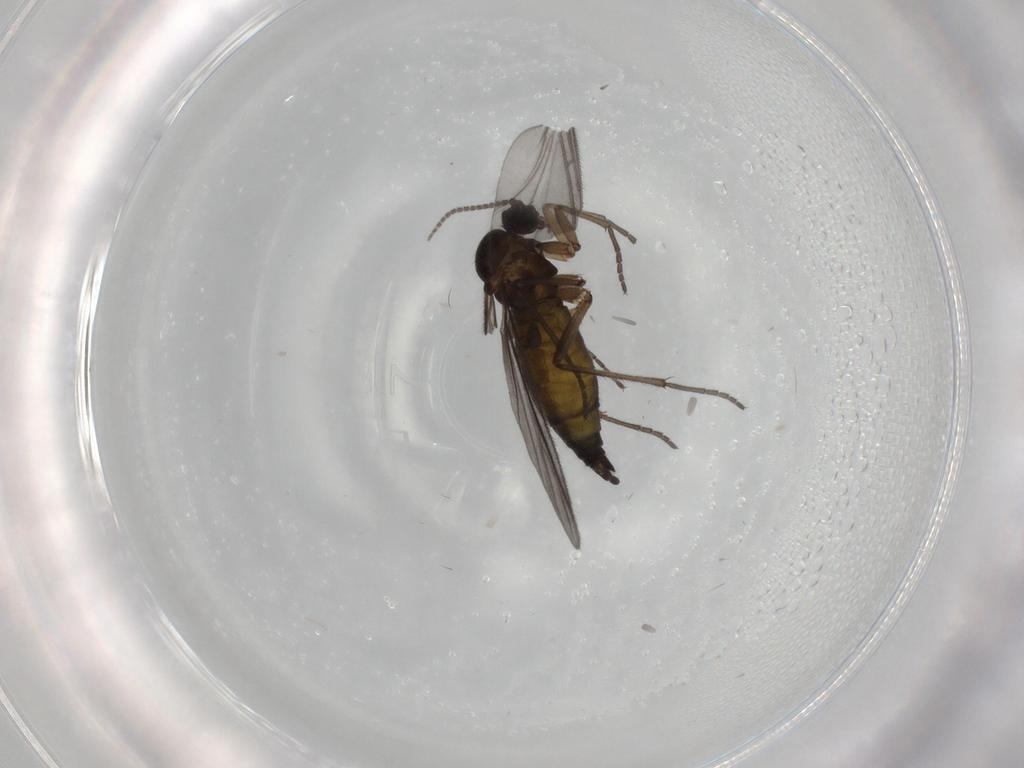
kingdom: Animalia
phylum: Arthropoda
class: Insecta
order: Diptera
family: Sciaridae
